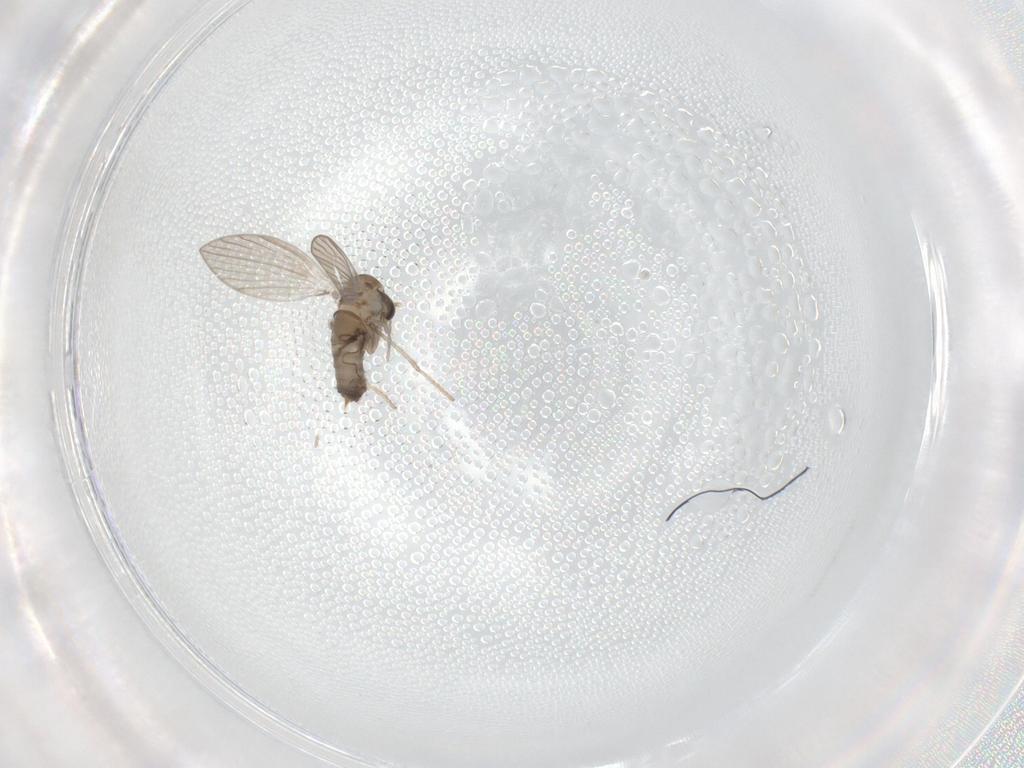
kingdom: Animalia
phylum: Arthropoda
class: Insecta
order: Diptera
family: Psychodidae
